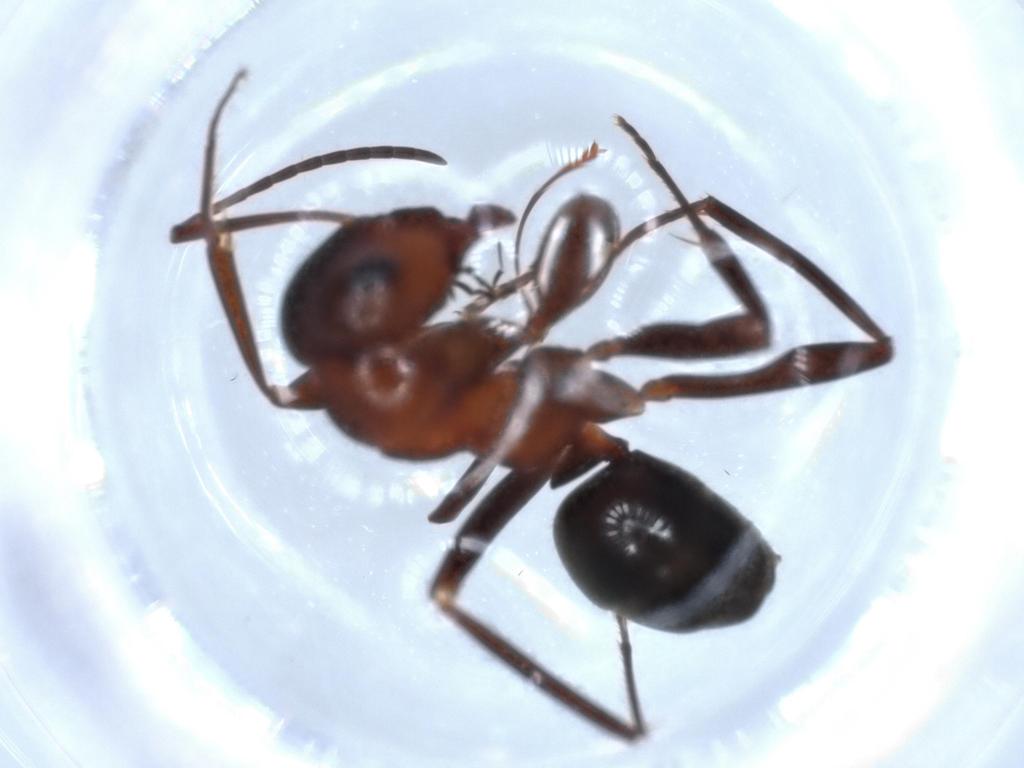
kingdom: Animalia
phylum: Arthropoda
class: Insecta
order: Hymenoptera
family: Formicidae
